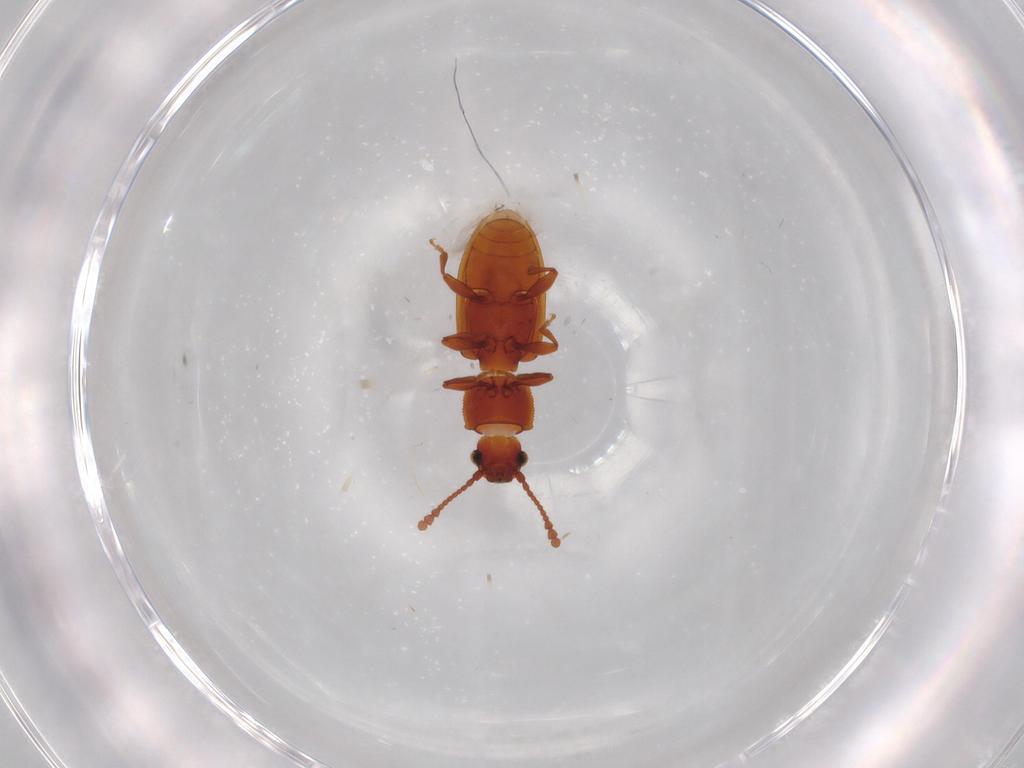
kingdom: Animalia
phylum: Arthropoda
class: Insecta
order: Coleoptera
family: Silvanidae
